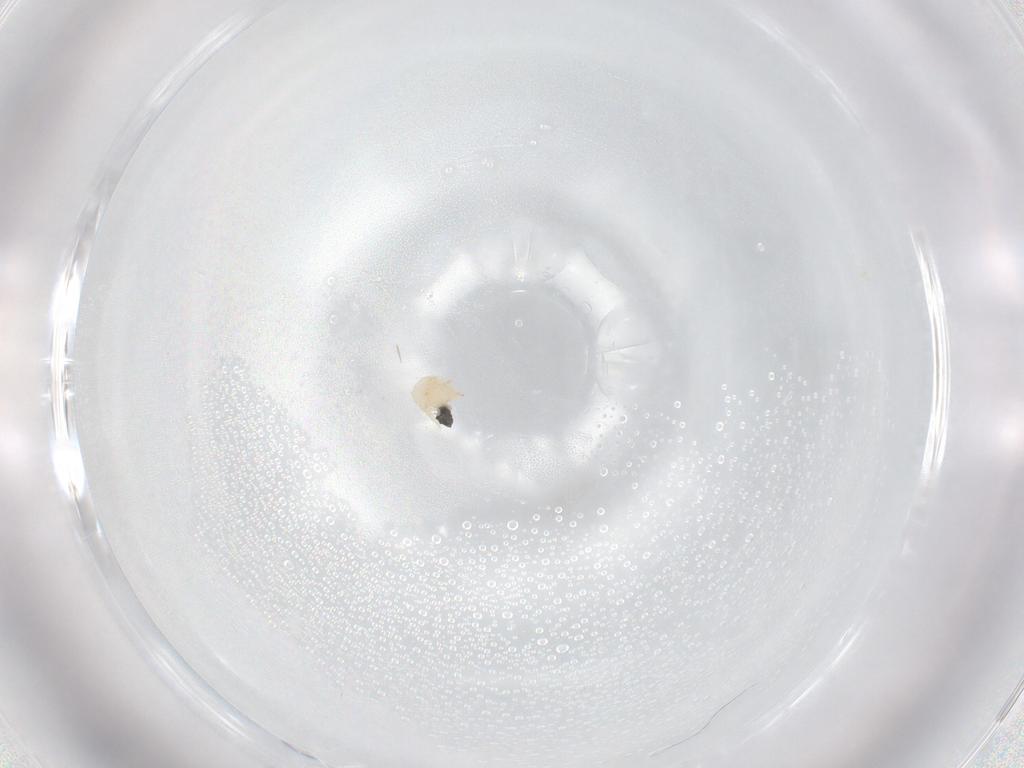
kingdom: Animalia
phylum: Arthropoda
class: Arachnida
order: Mesostigmata
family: Trematuridae
